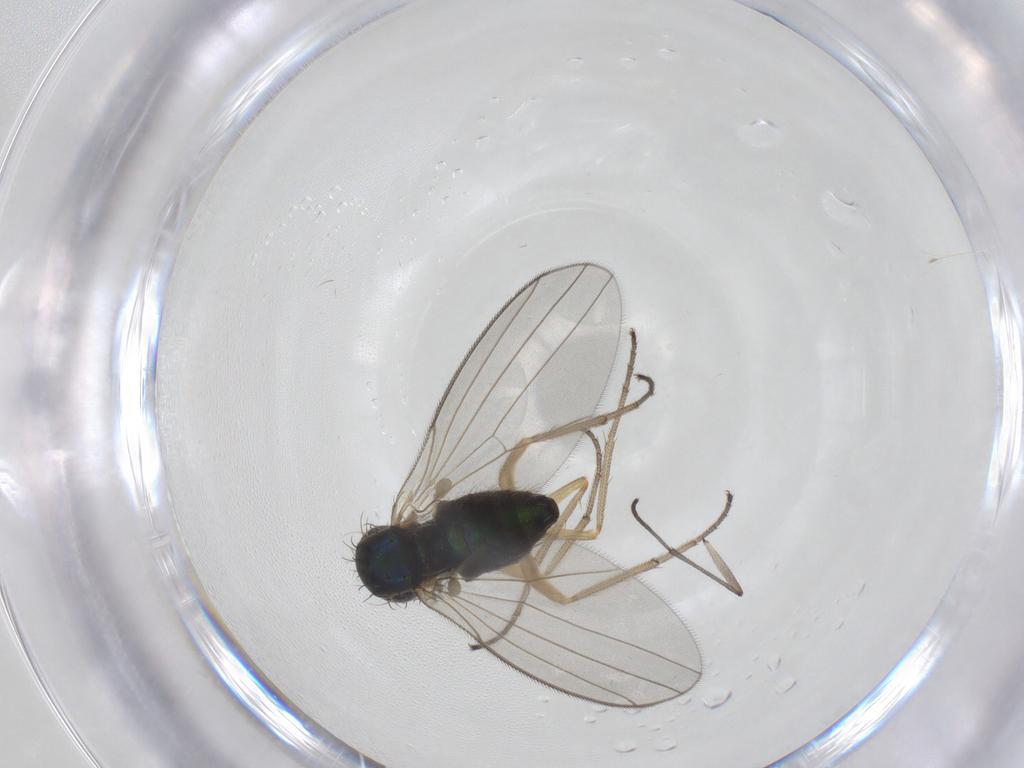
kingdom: Animalia
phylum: Arthropoda
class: Insecta
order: Diptera
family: Dolichopodidae
